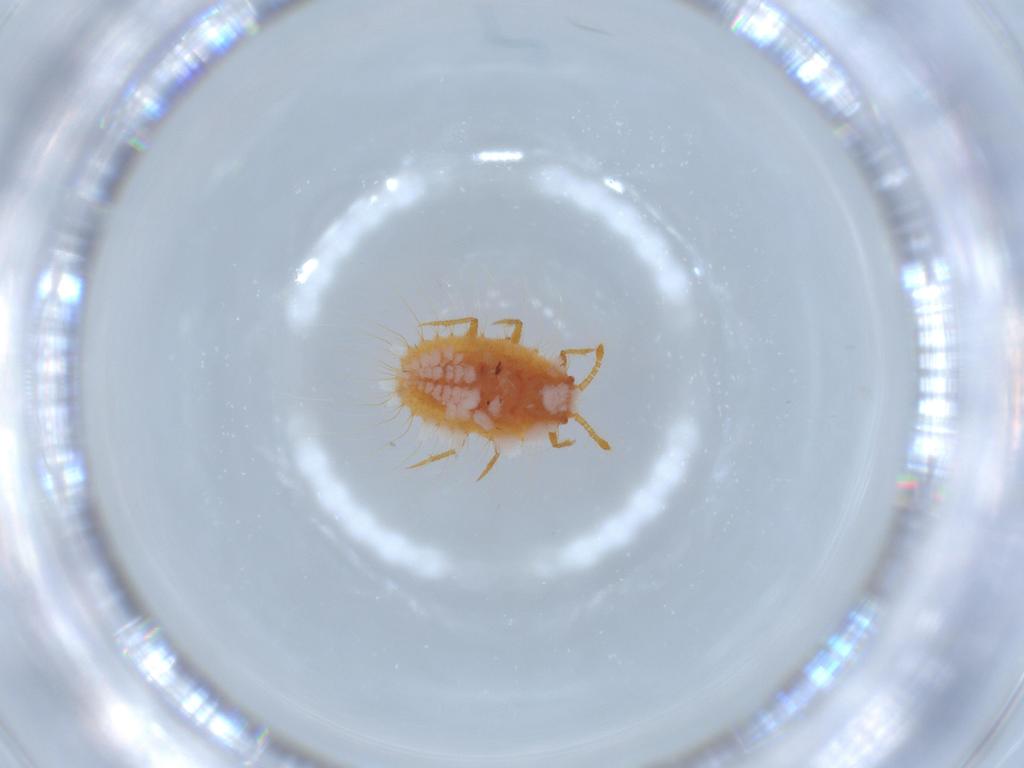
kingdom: Animalia
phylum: Arthropoda
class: Insecta
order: Hemiptera
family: Coccoidea_incertae_sedis
